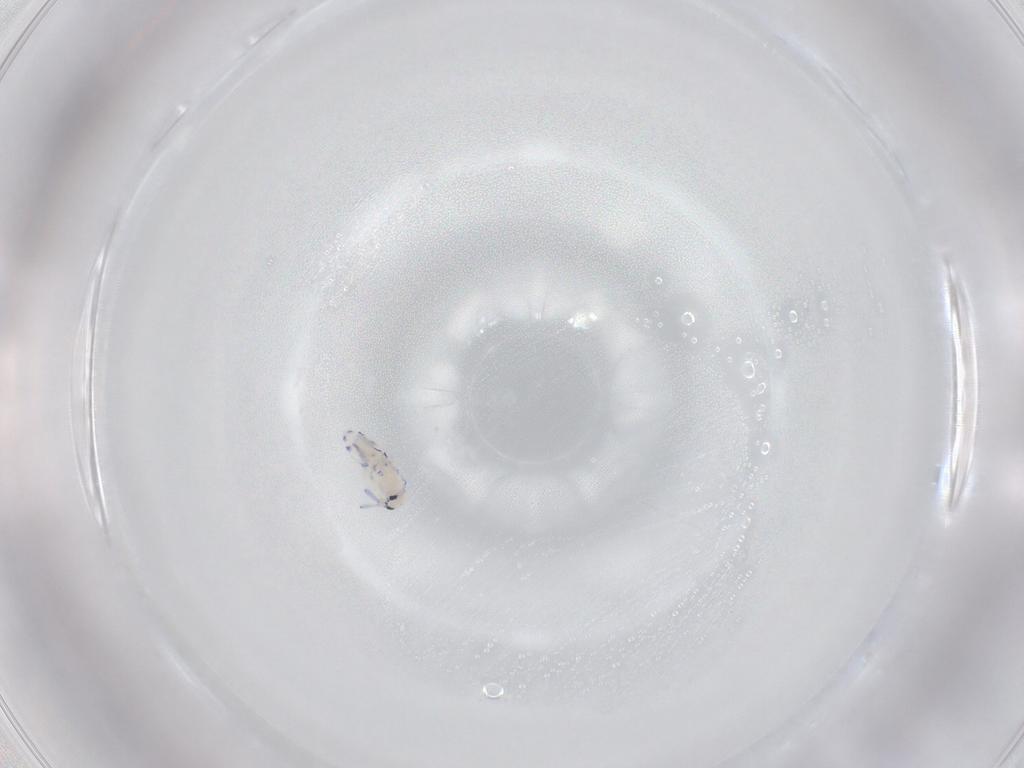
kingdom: Animalia
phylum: Arthropoda
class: Collembola
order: Entomobryomorpha
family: Entomobryidae
